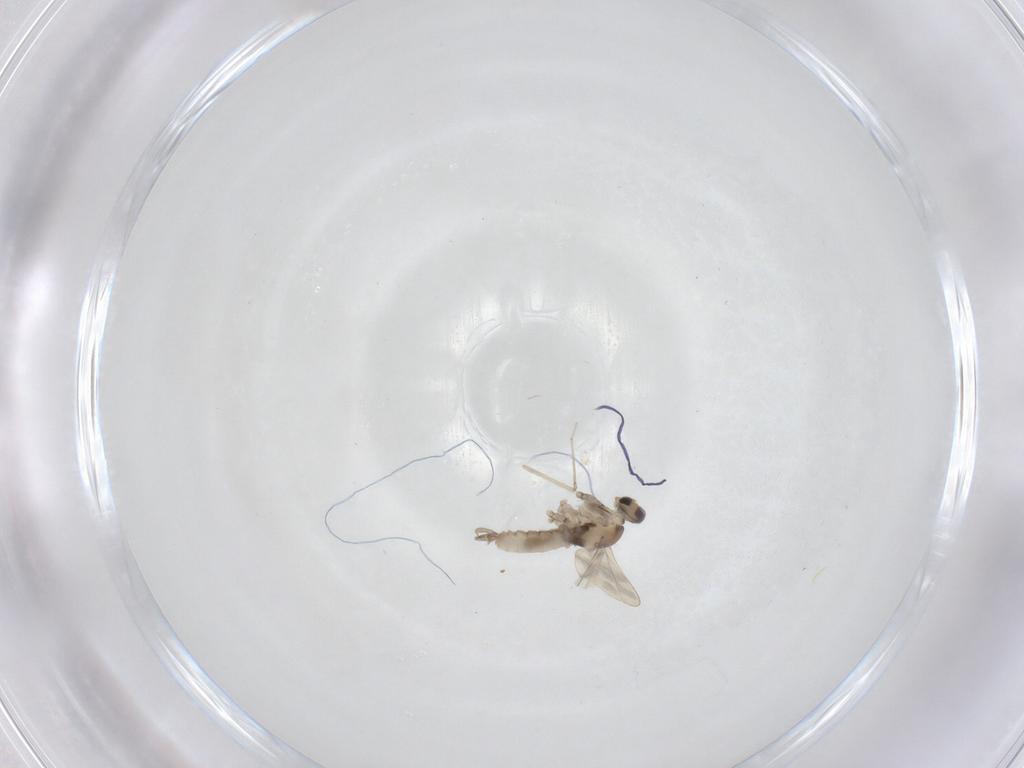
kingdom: Animalia
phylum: Arthropoda
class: Insecta
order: Diptera
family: Cecidomyiidae
